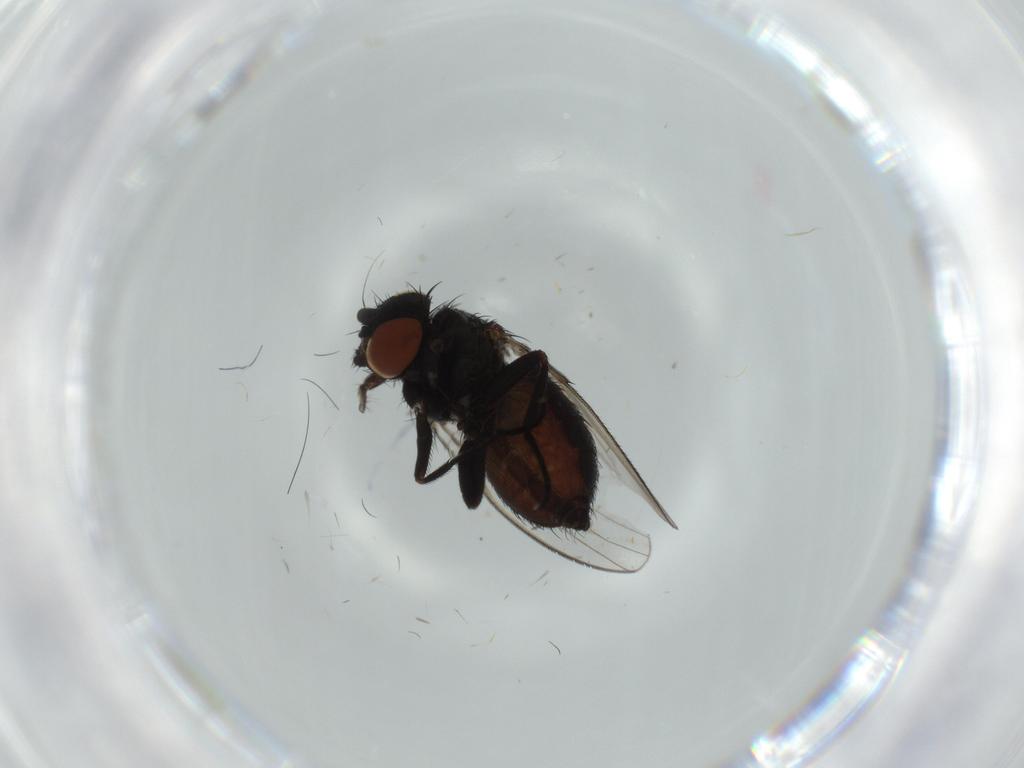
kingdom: Animalia
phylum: Arthropoda
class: Insecta
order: Diptera
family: Milichiidae
